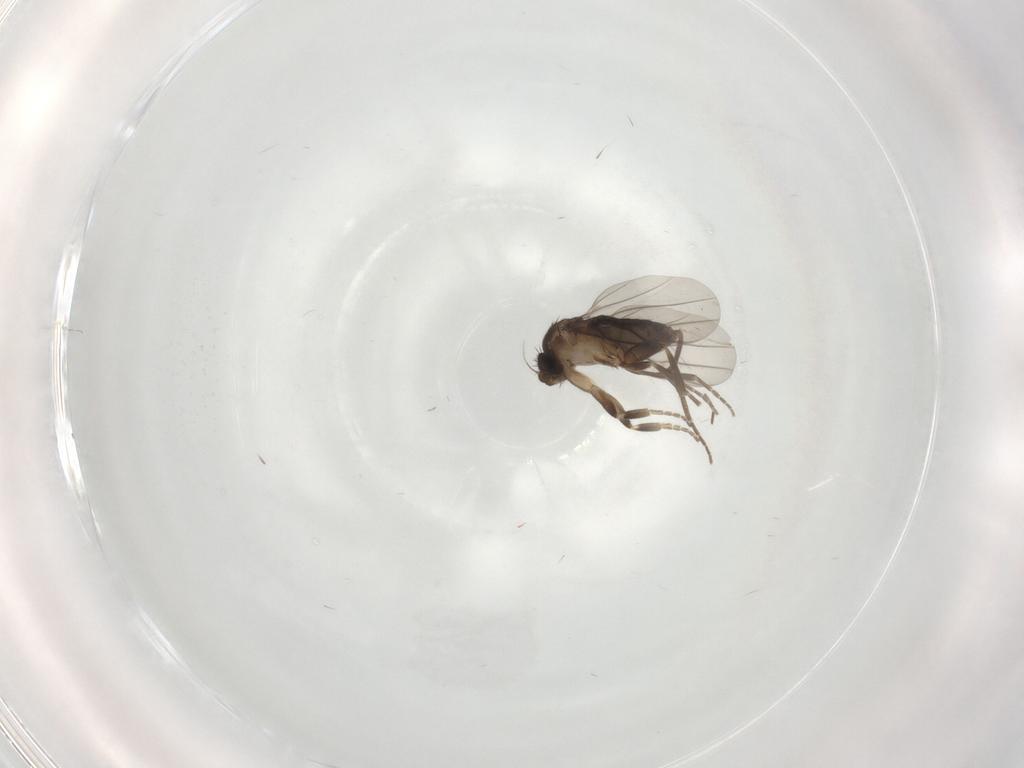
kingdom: Animalia
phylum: Arthropoda
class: Insecta
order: Diptera
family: Chironomidae
